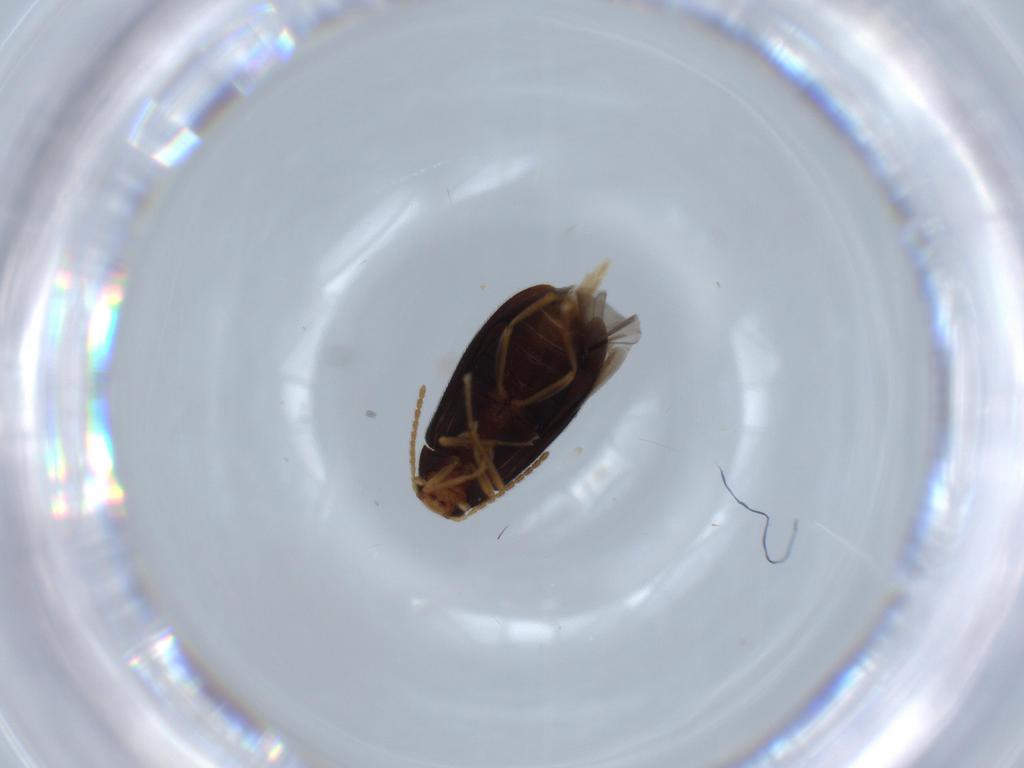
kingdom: Animalia
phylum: Arthropoda
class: Insecta
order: Coleoptera
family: Melandryidae
